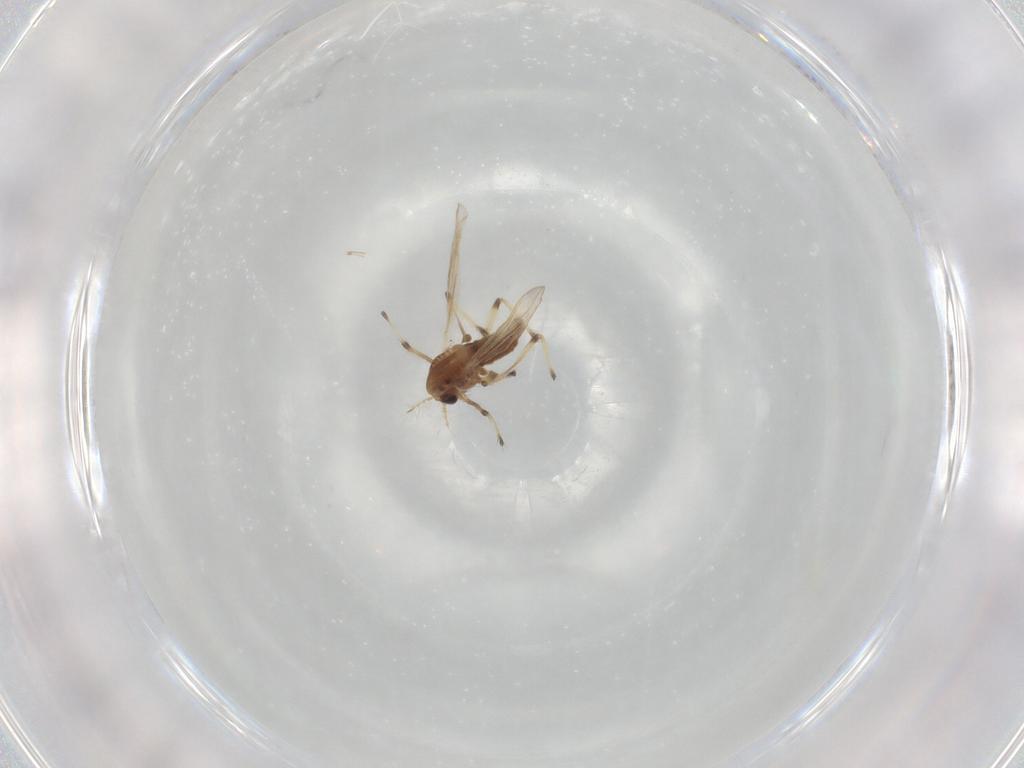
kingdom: Animalia
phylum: Arthropoda
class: Insecta
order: Diptera
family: Chironomidae
